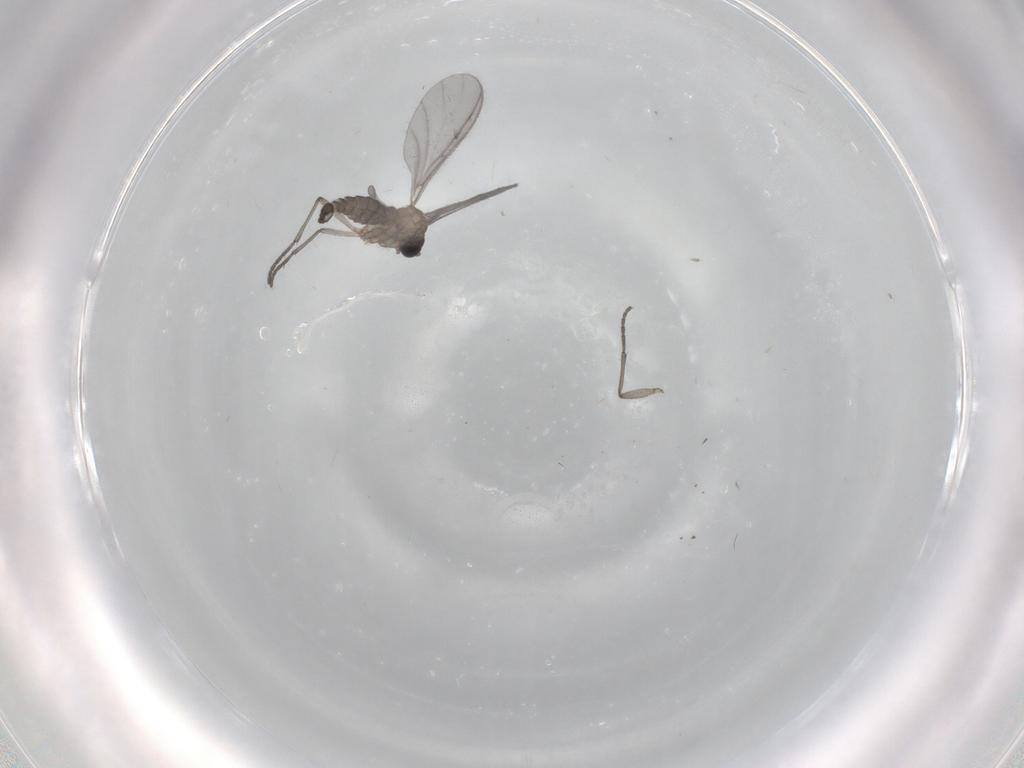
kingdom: Animalia
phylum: Arthropoda
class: Insecta
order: Diptera
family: Sciaridae
